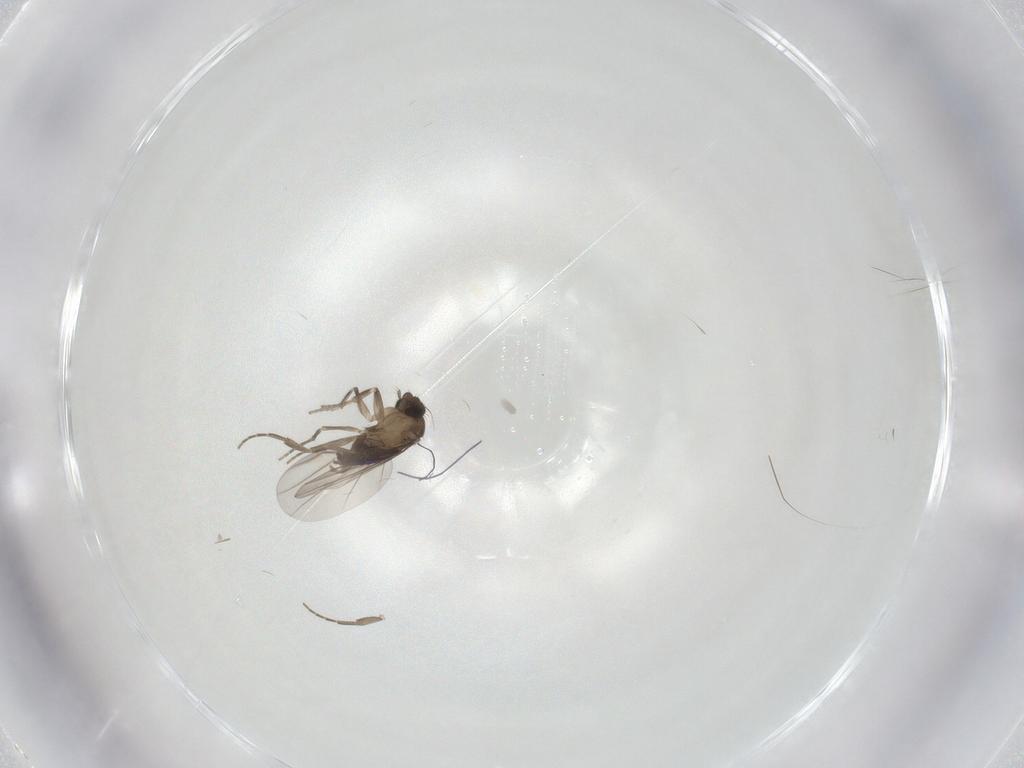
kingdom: Animalia
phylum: Arthropoda
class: Insecta
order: Diptera
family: Phoridae
